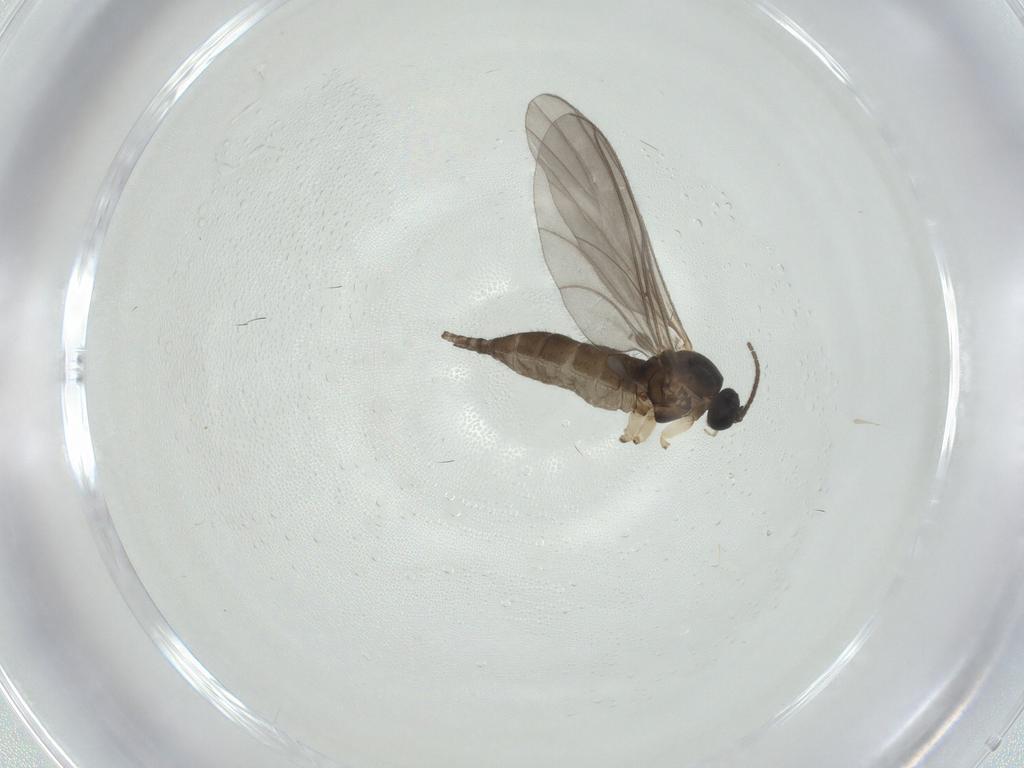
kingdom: Animalia
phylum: Arthropoda
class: Insecta
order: Diptera
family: Sciaridae
